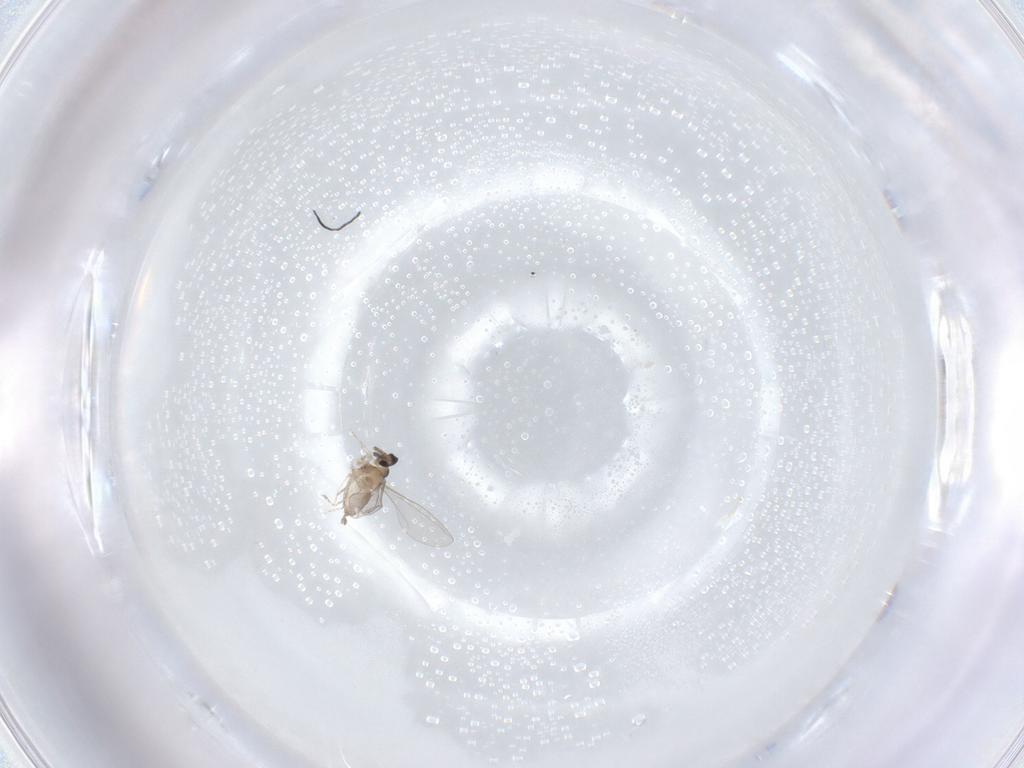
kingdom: Animalia
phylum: Arthropoda
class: Insecta
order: Diptera
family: Cecidomyiidae
